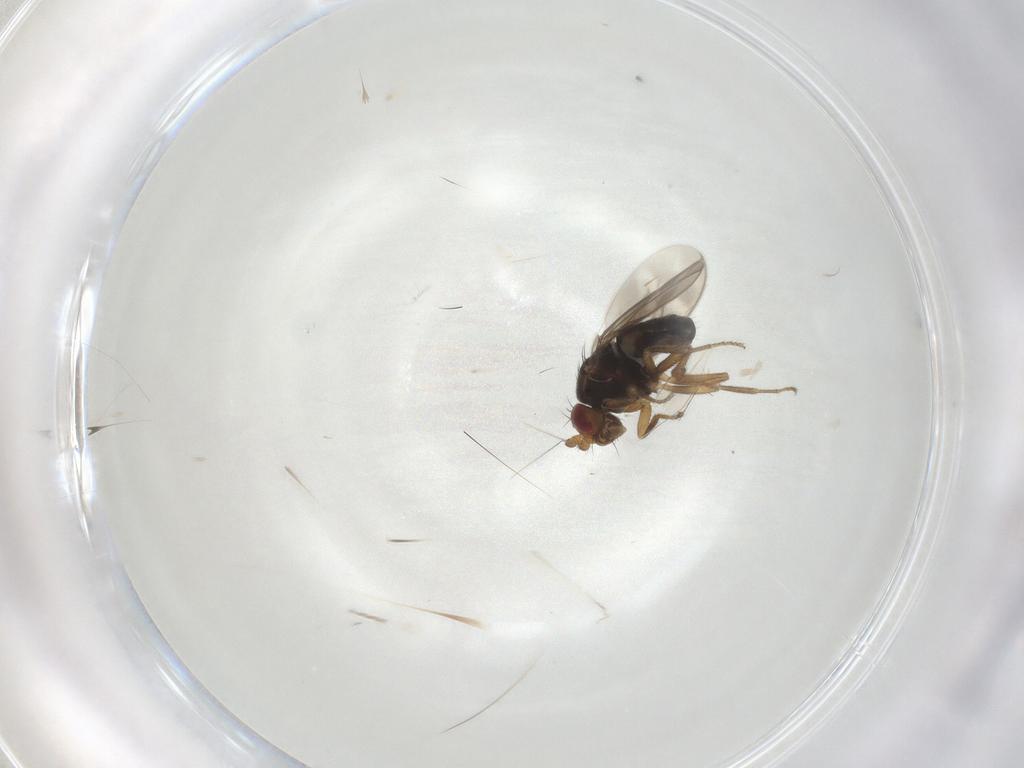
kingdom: Animalia
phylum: Arthropoda
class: Insecta
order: Diptera
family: Sphaeroceridae
